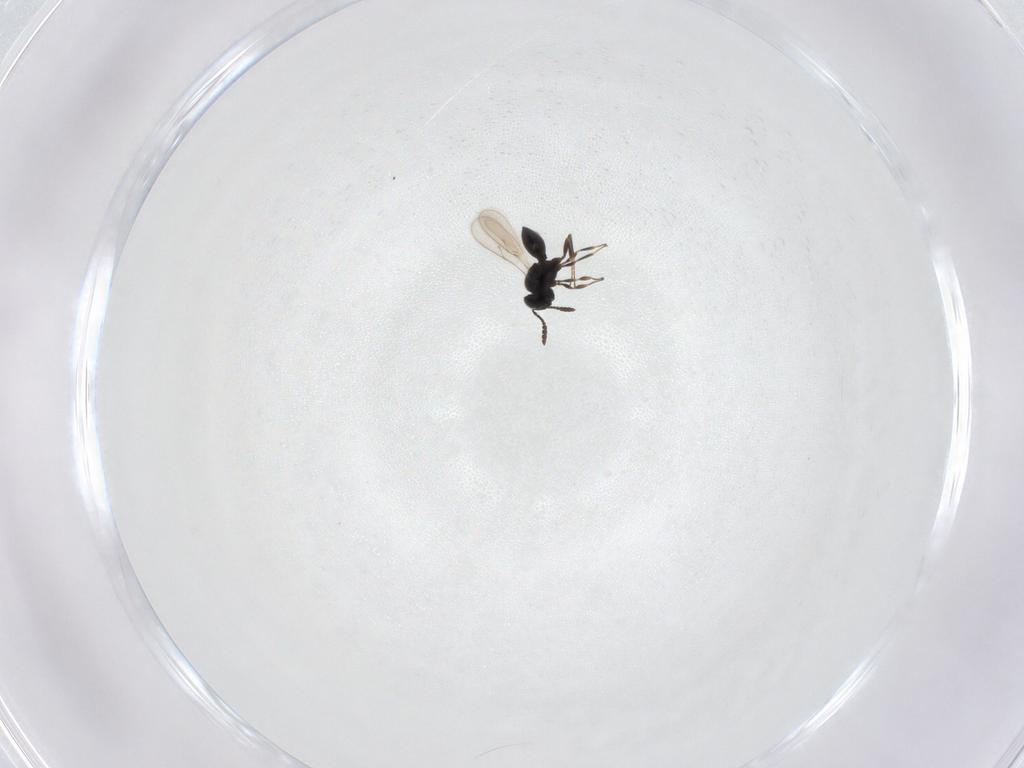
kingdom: Animalia
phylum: Arthropoda
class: Insecta
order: Hymenoptera
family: Scelionidae
